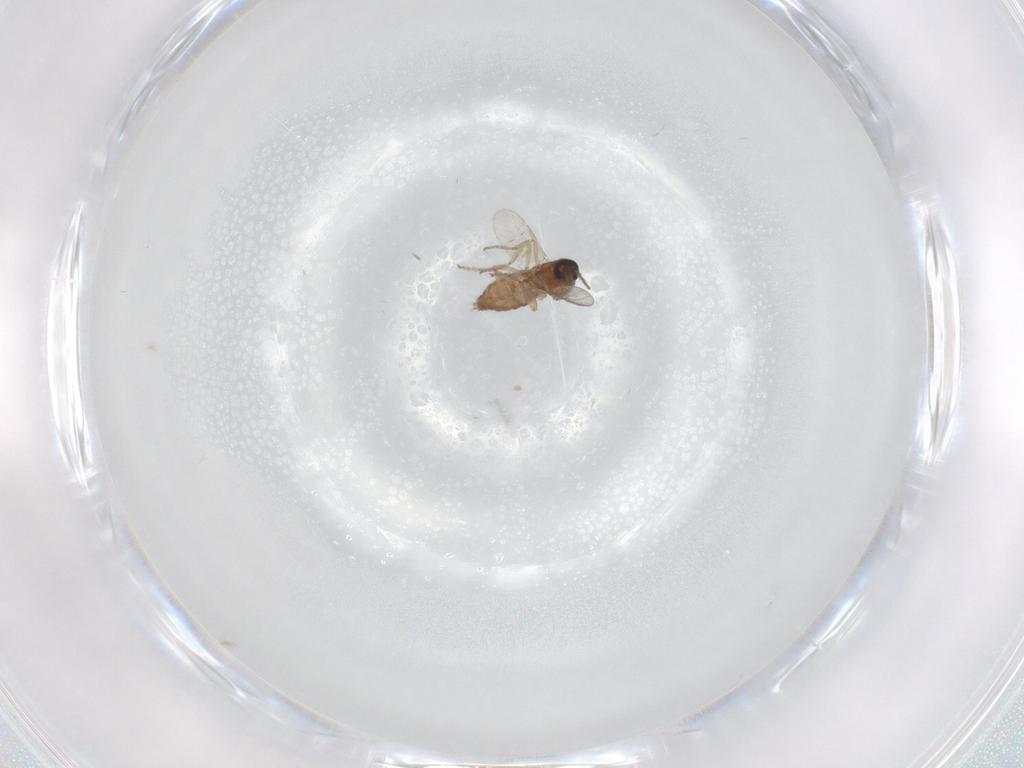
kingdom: Animalia
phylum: Arthropoda
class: Insecta
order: Diptera
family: Ceratopogonidae
